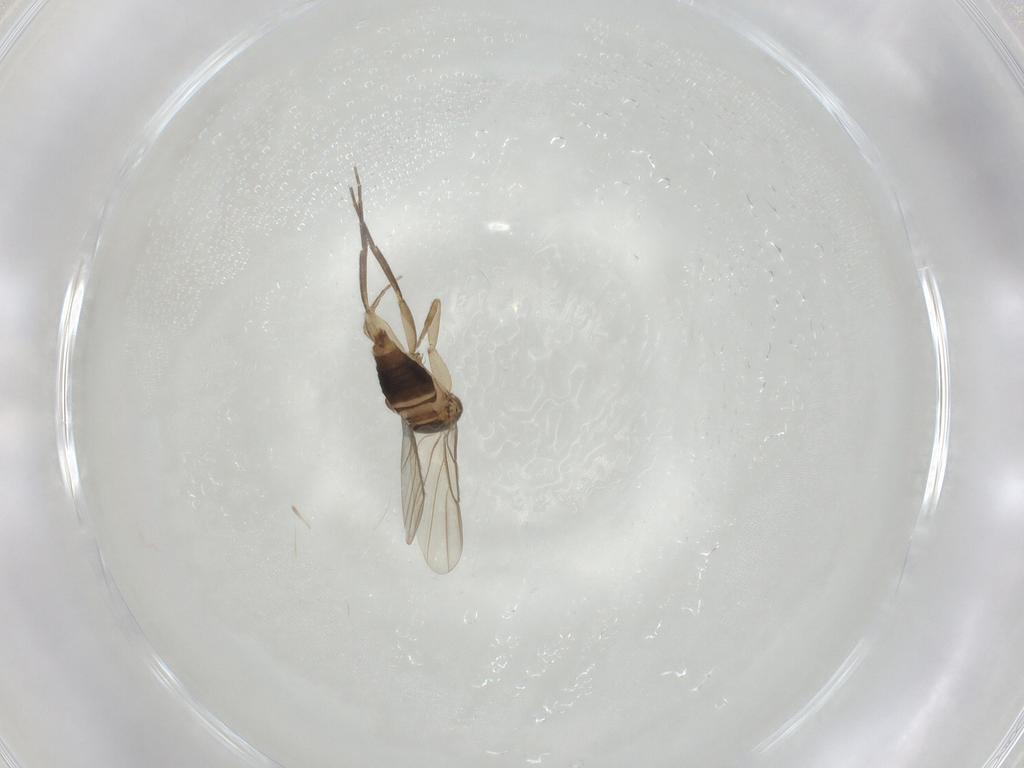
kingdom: Animalia
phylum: Arthropoda
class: Insecta
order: Diptera
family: Phoridae
